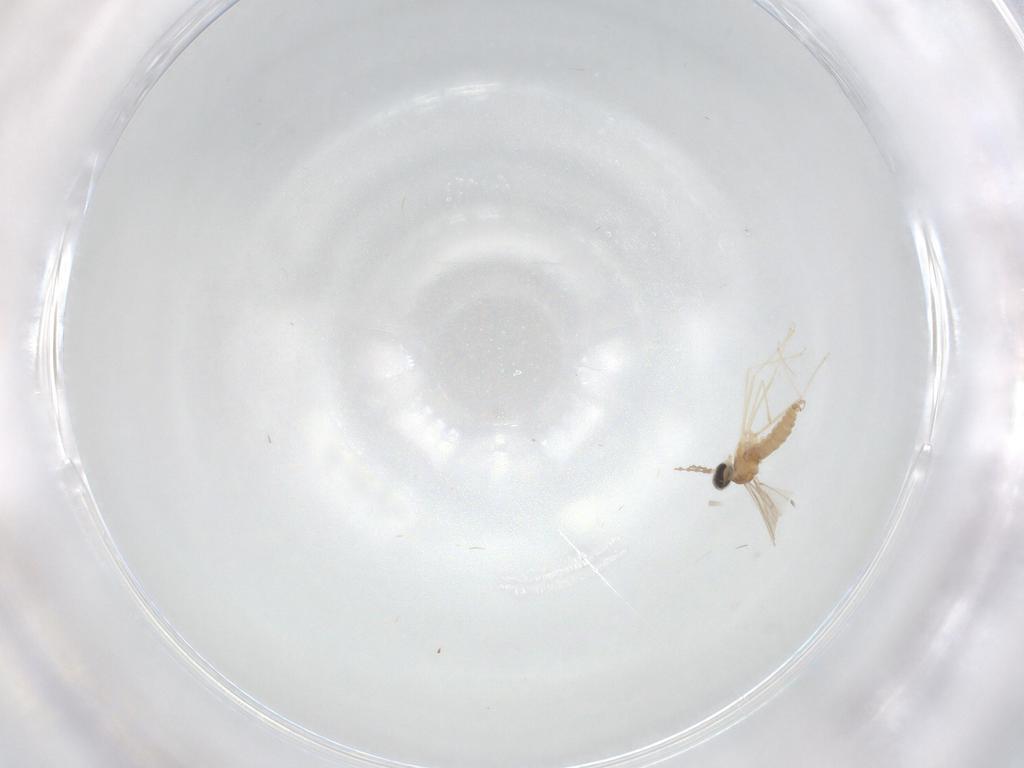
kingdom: Animalia
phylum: Arthropoda
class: Insecta
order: Diptera
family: Cecidomyiidae
